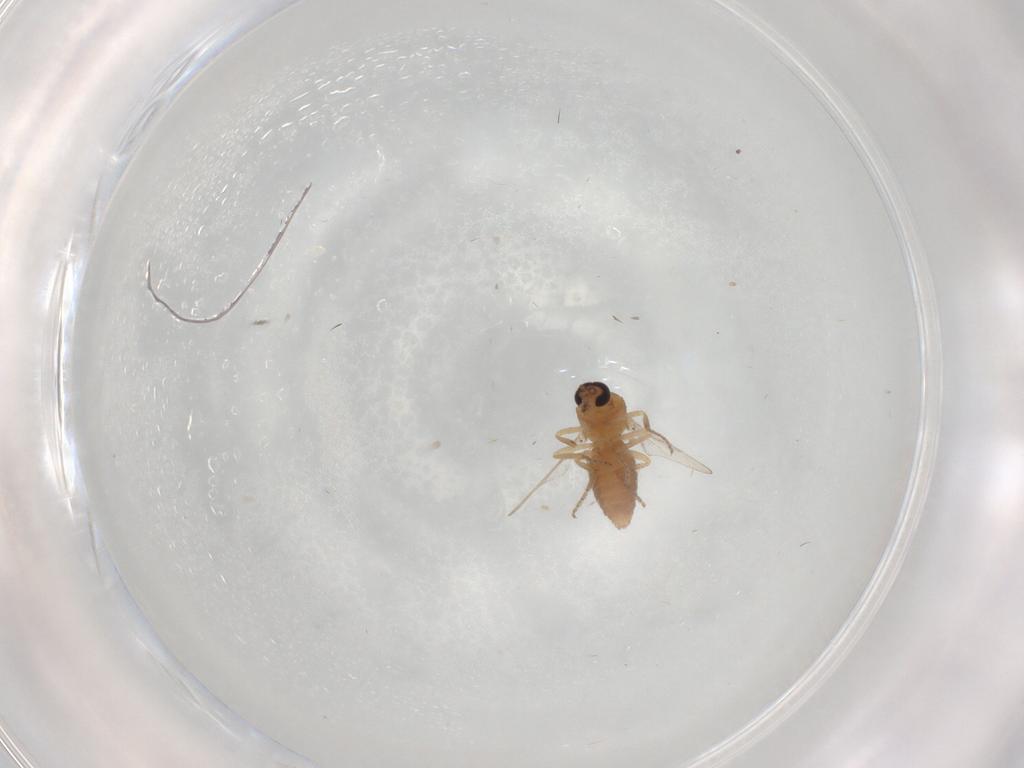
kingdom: Animalia
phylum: Arthropoda
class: Insecta
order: Diptera
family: Ceratopogonidae
